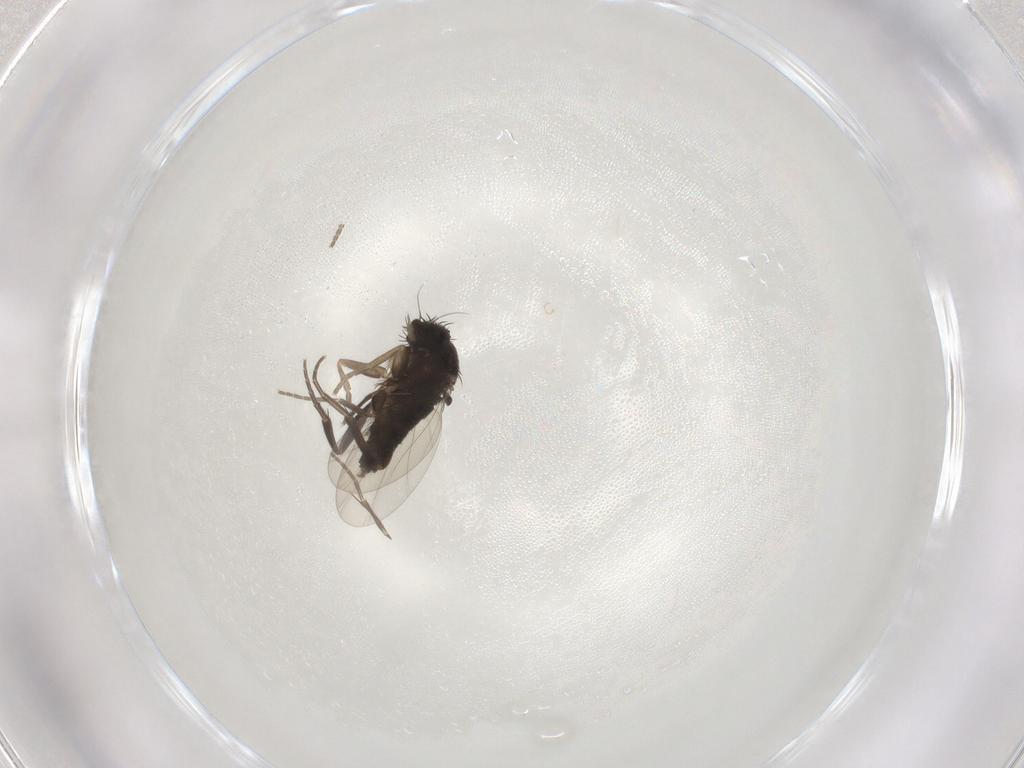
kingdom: Animalia
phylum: Arthropoda
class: Insecta
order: Diptera
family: Phoridae
